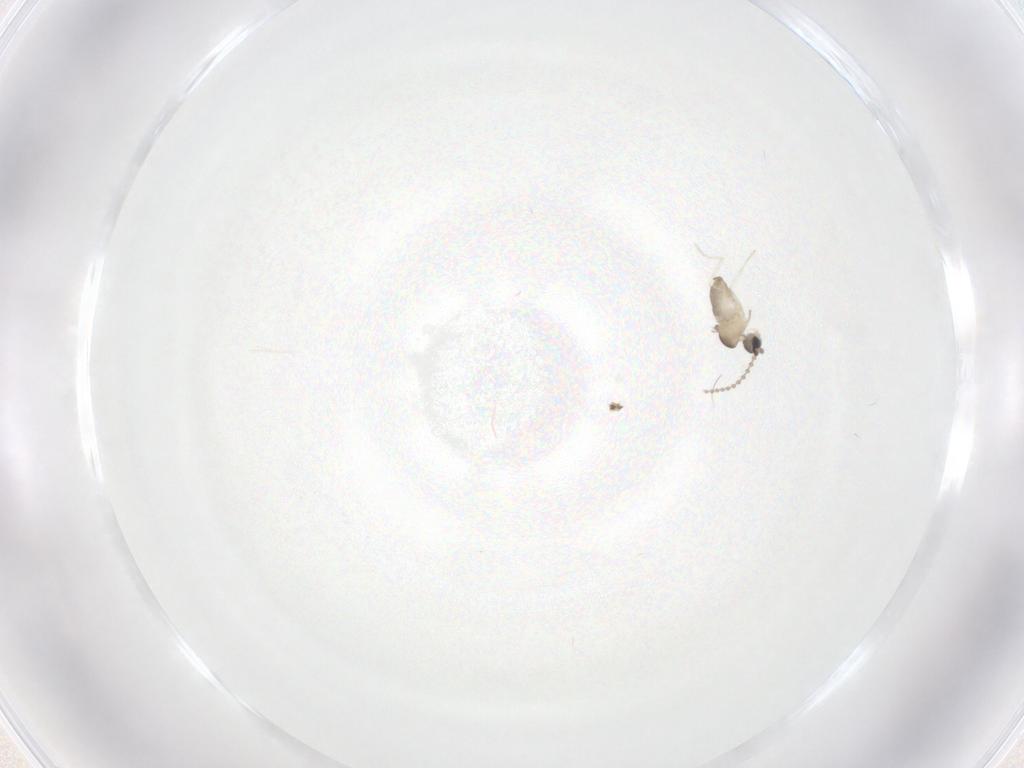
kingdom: Animalia
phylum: Arthropoda
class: Insecta
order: Diptera
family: Cecidomyiidae
